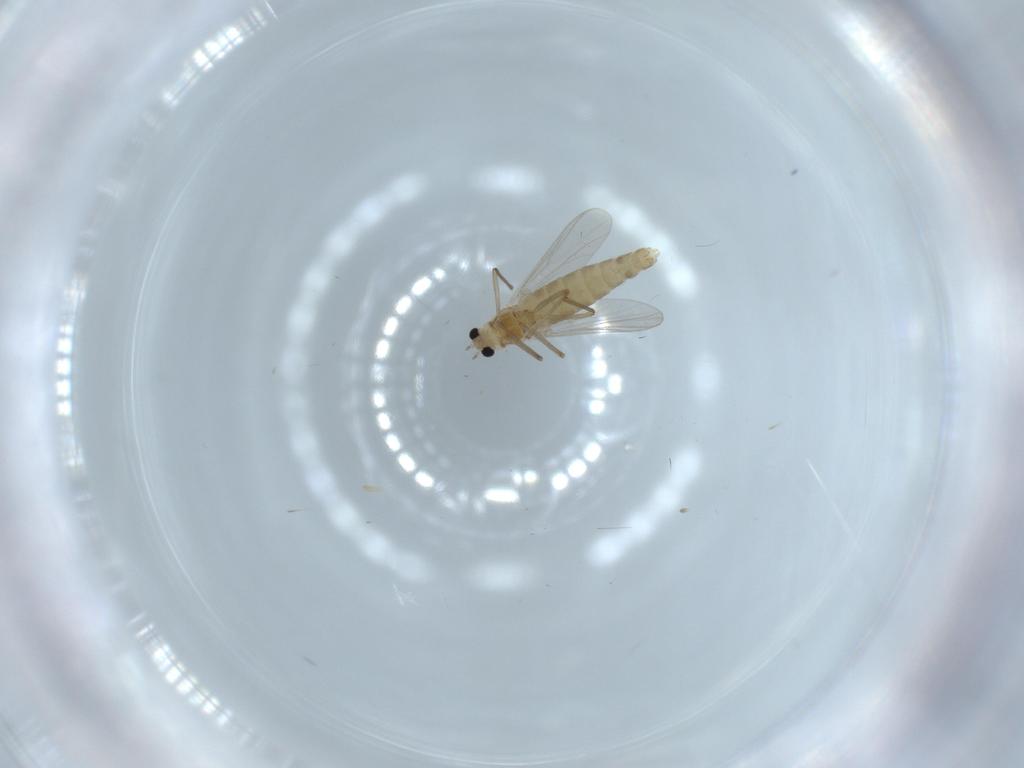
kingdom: Animalia
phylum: Arthropoda
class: Insecta
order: Diptera
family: Chironomidae
